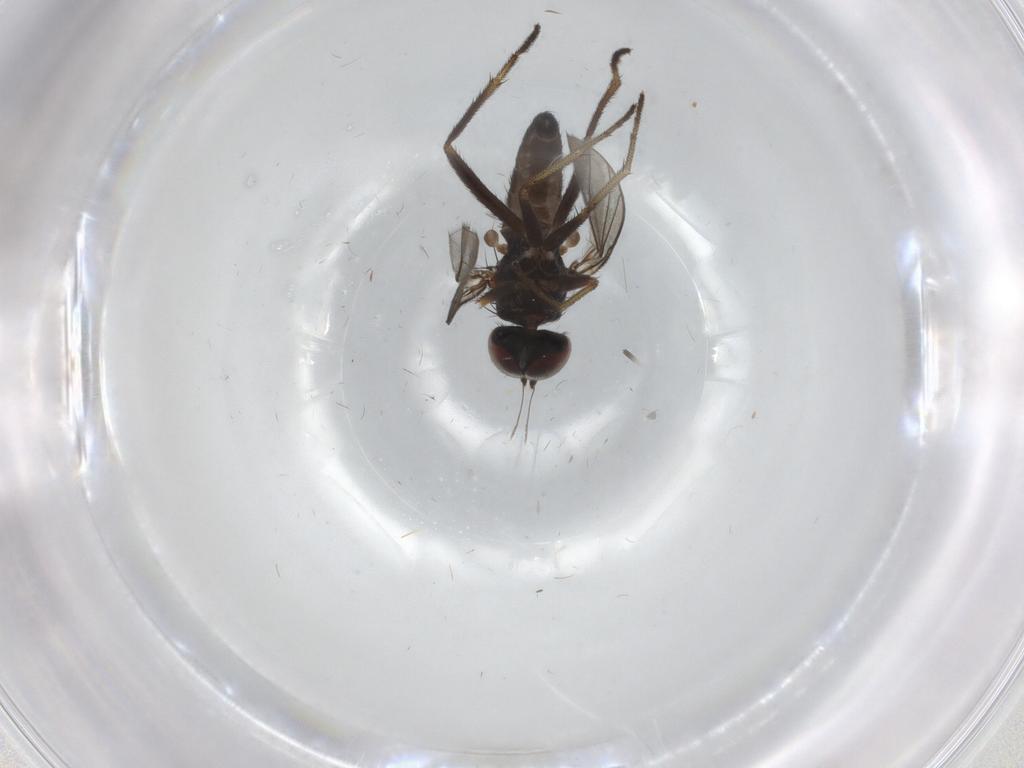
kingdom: Animalia
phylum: Arthropoda
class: Insecta
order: Diptera
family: Dolichopodidae
